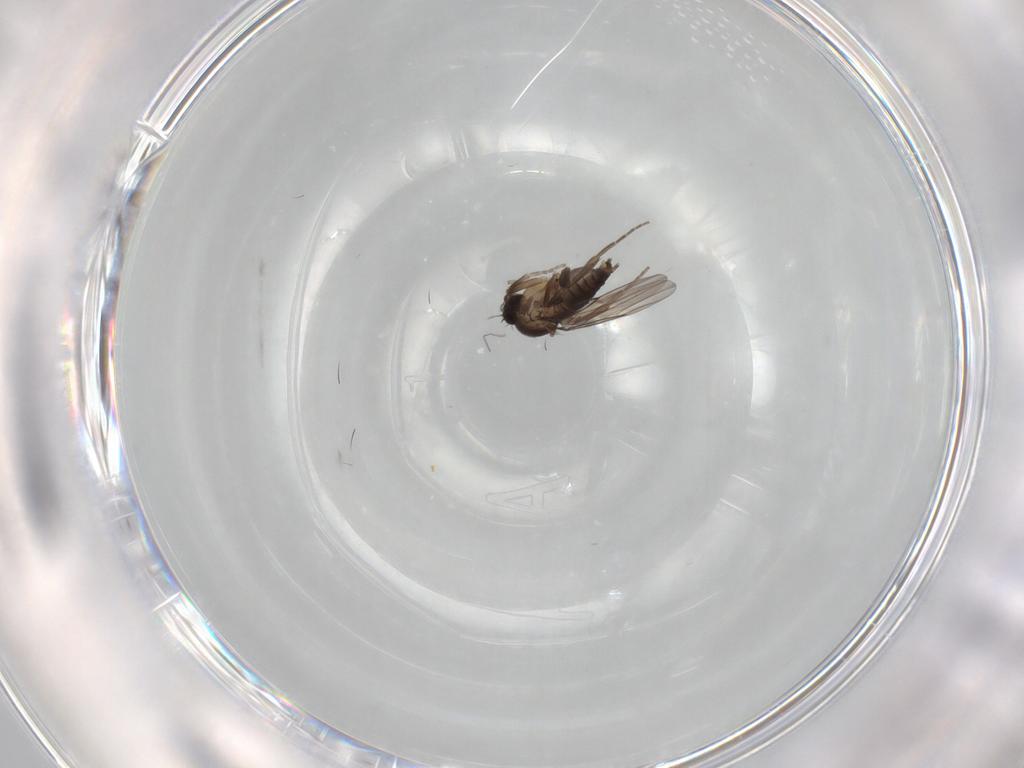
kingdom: Animalia
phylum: Arthropoda
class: Insecta
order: Diptera
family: Phoridae
